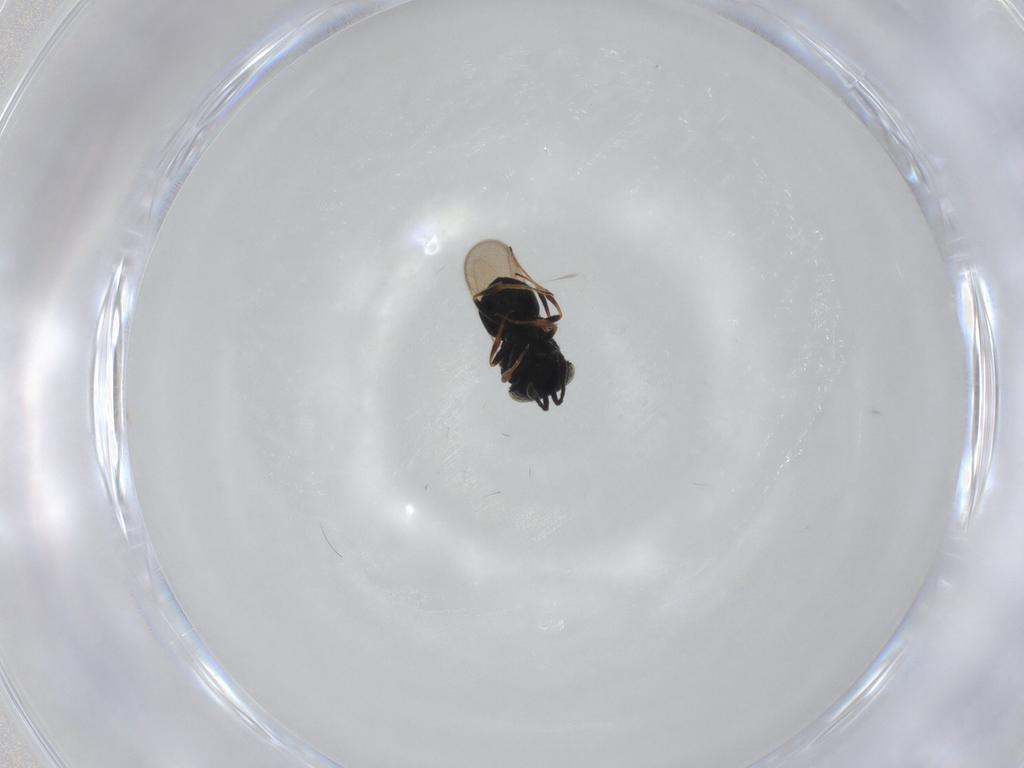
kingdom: Animalia
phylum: Arthropoda
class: Insecta
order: Hymenoptera
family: Scelionidae
